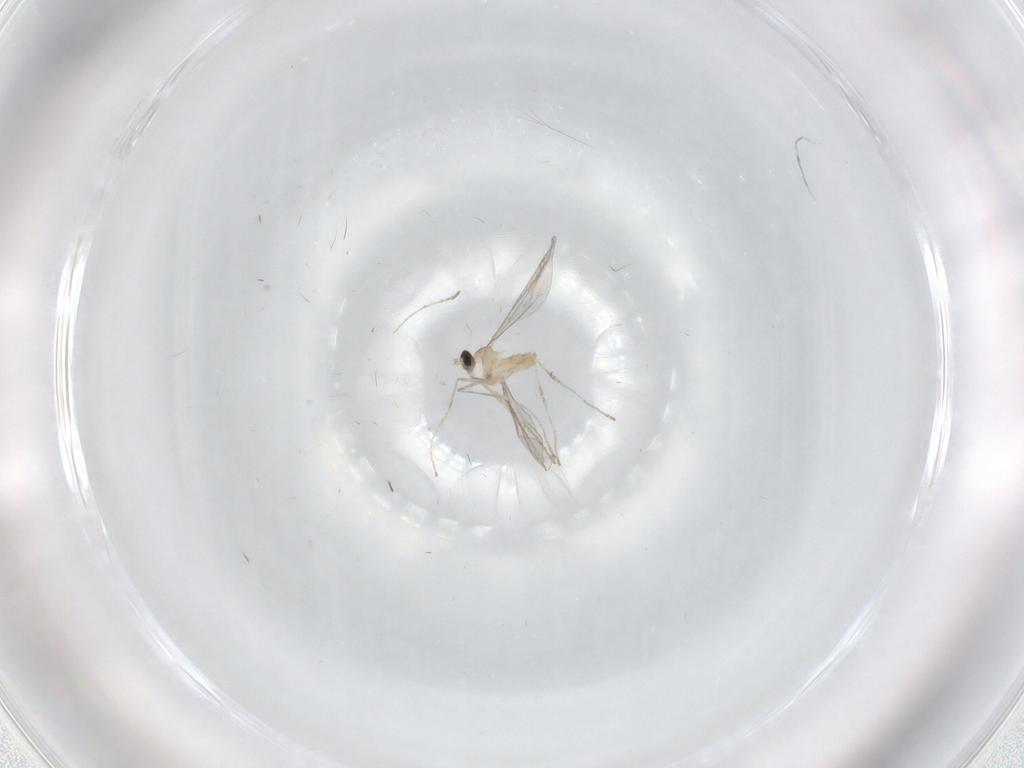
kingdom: Animalia
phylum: Arthropoda
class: Insecta
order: Diptera
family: Cecidomyiidae
